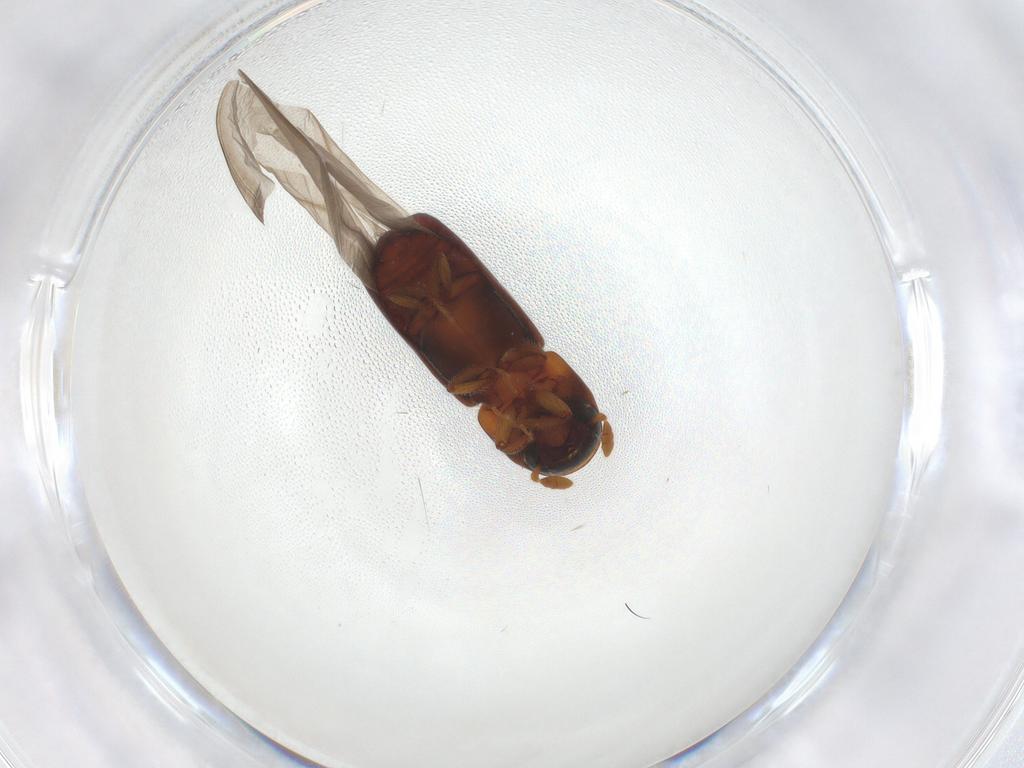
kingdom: Animalia
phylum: Arthropoda
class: Insecta
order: Coleoptera
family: Curculionidae
